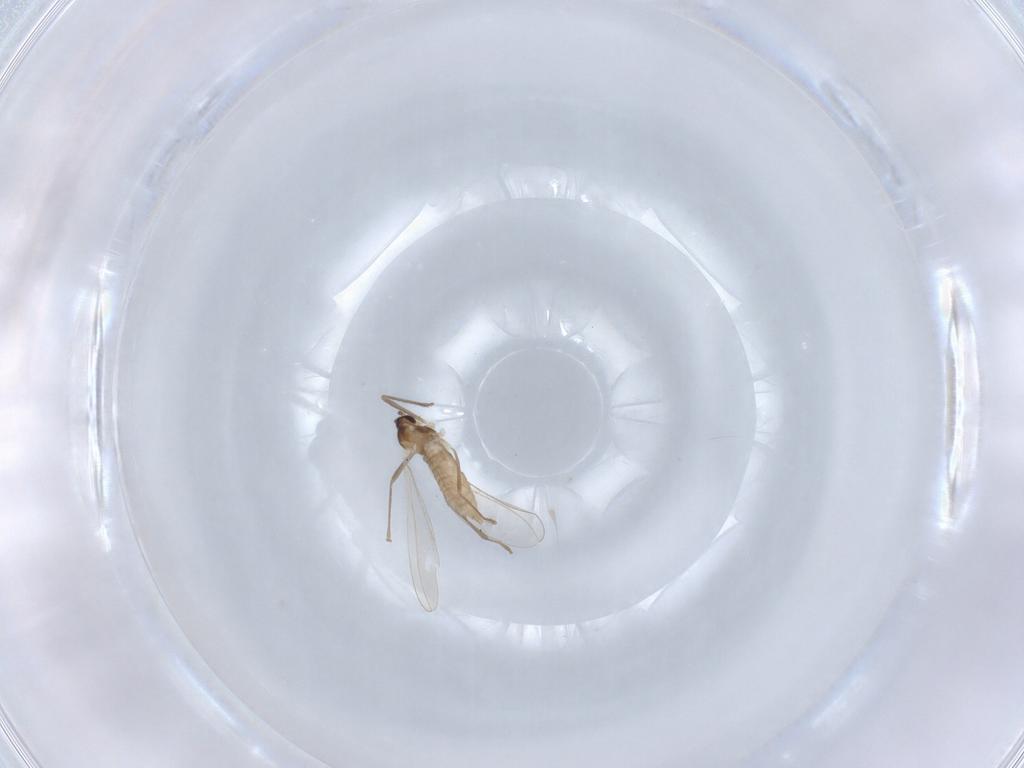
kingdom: Animalia
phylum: Arthropoda
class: Insecta
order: Diptera
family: Cecidomyiidae
